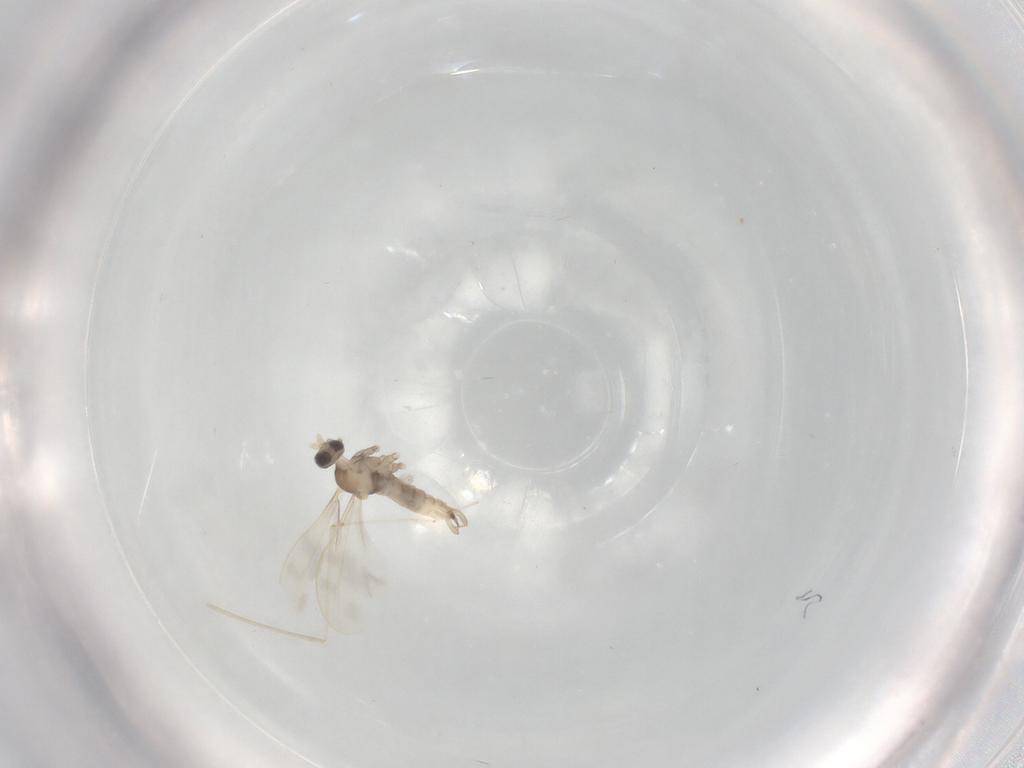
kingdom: Animalia
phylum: Arthropoda
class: Insecta
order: Diptera
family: Cecidomyiidae
